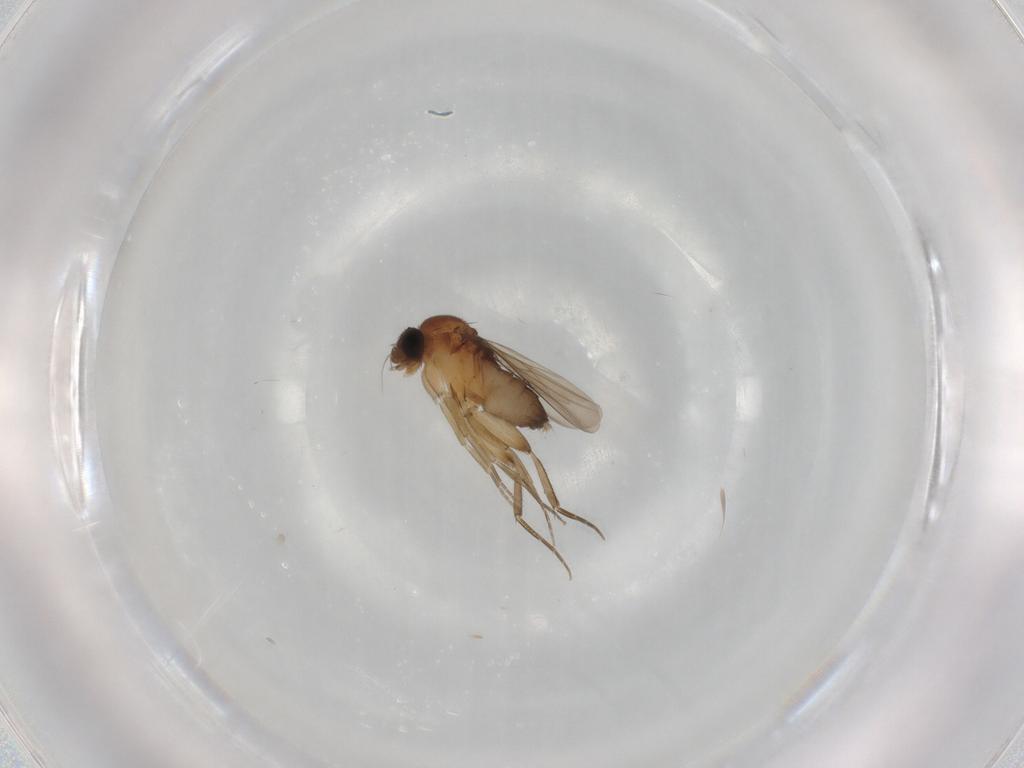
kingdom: Animalia
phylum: Arthropoda
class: Insecta
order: Diptera
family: Phoridae
